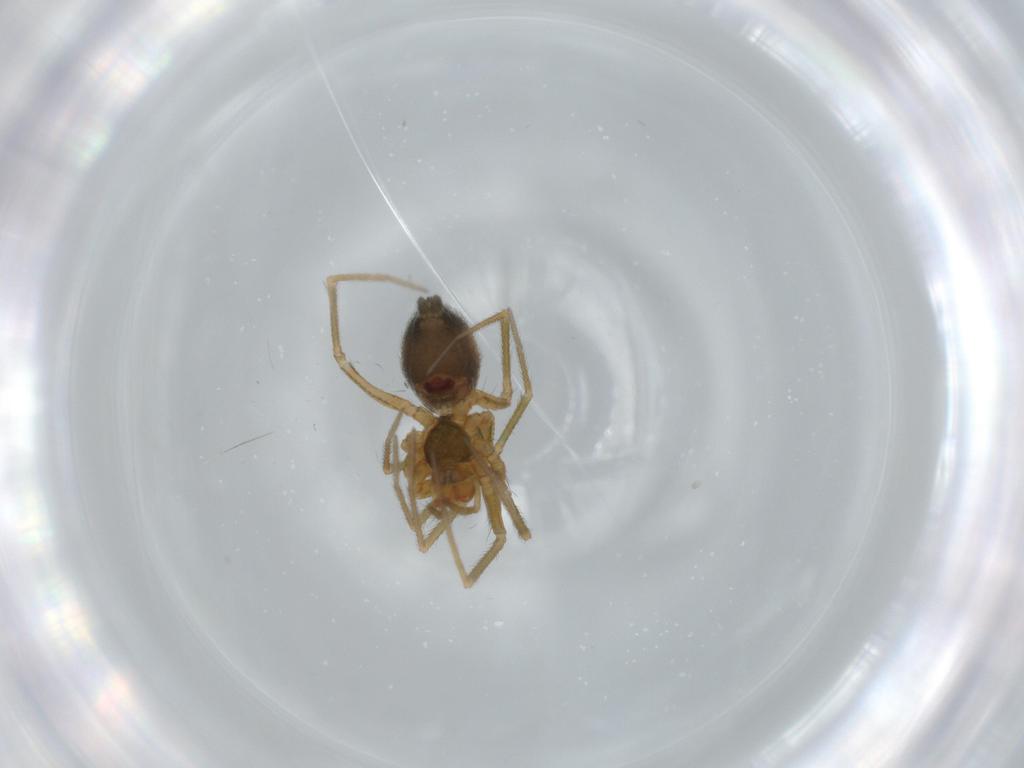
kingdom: Animalia
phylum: Arthropoda
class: Arachnida
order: Araneae
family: Linyphiidae
